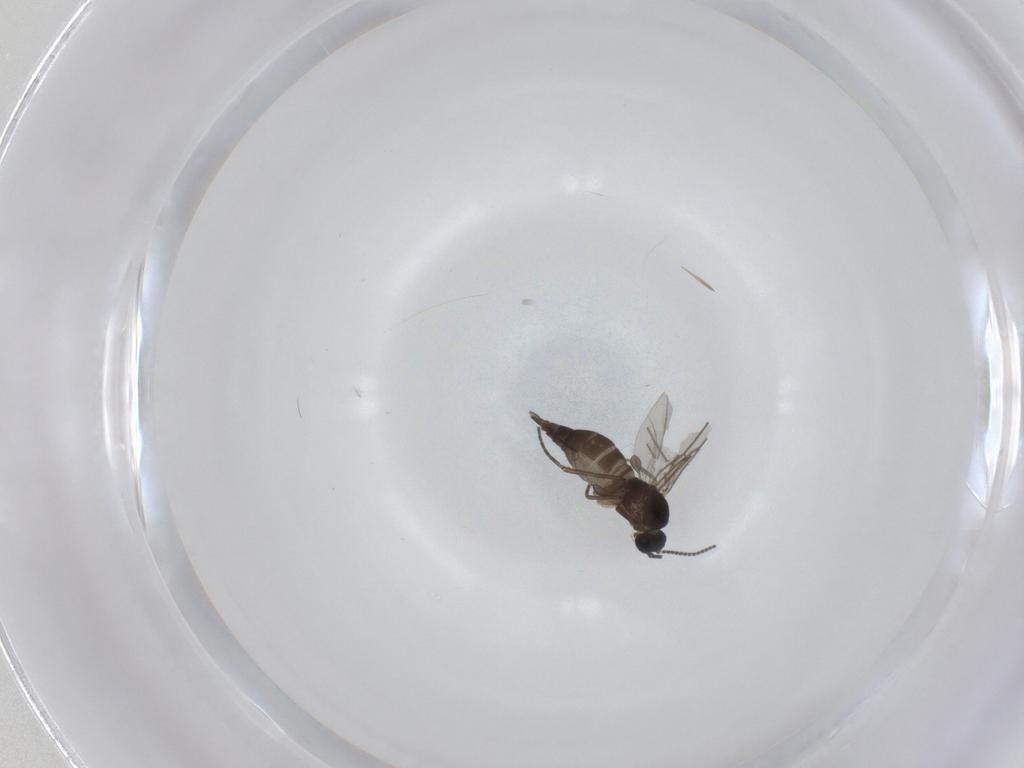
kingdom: Animalia
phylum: Arthropoda
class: Insecta
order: Diptera
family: Sciaridae
